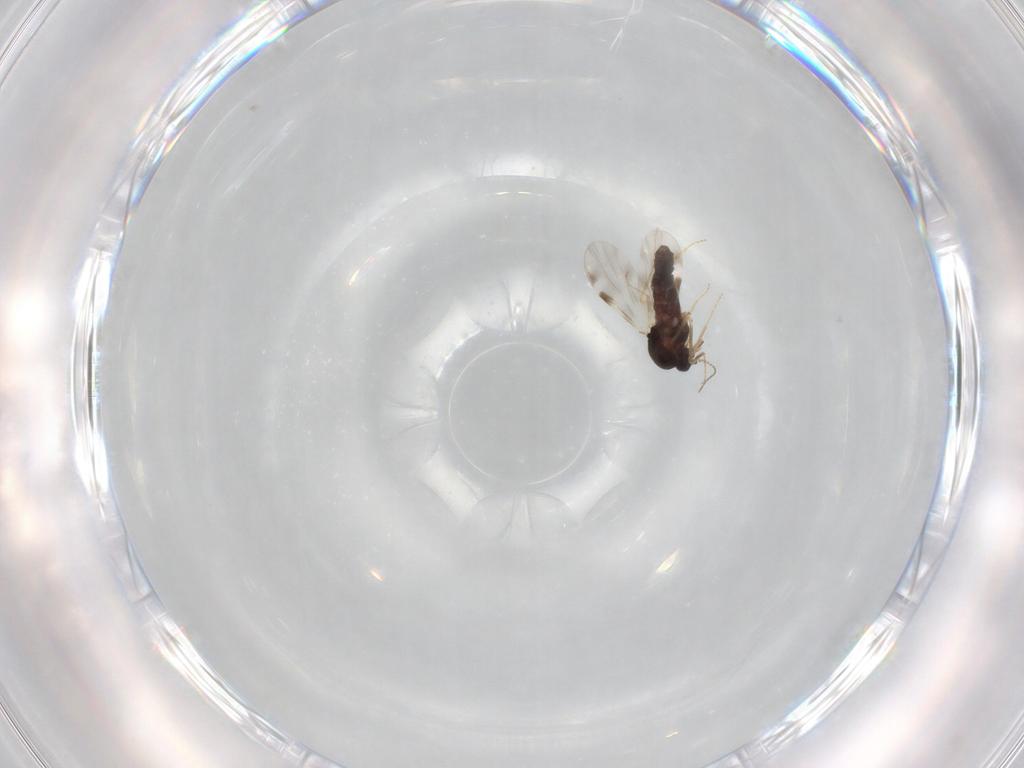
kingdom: Animalia
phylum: Arthropoda
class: Insecta
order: Diptera
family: Ceratopogonidae
